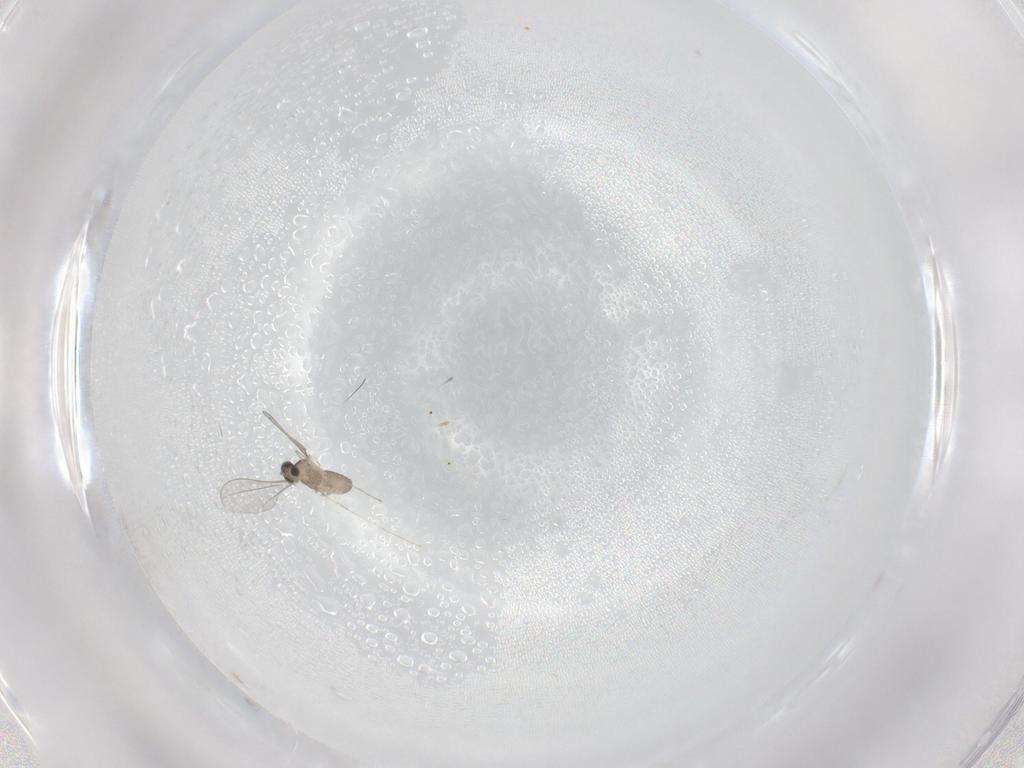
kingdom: Animalia
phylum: Arthropoda
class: Insecta
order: Diptera
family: Cecidomyiidae
